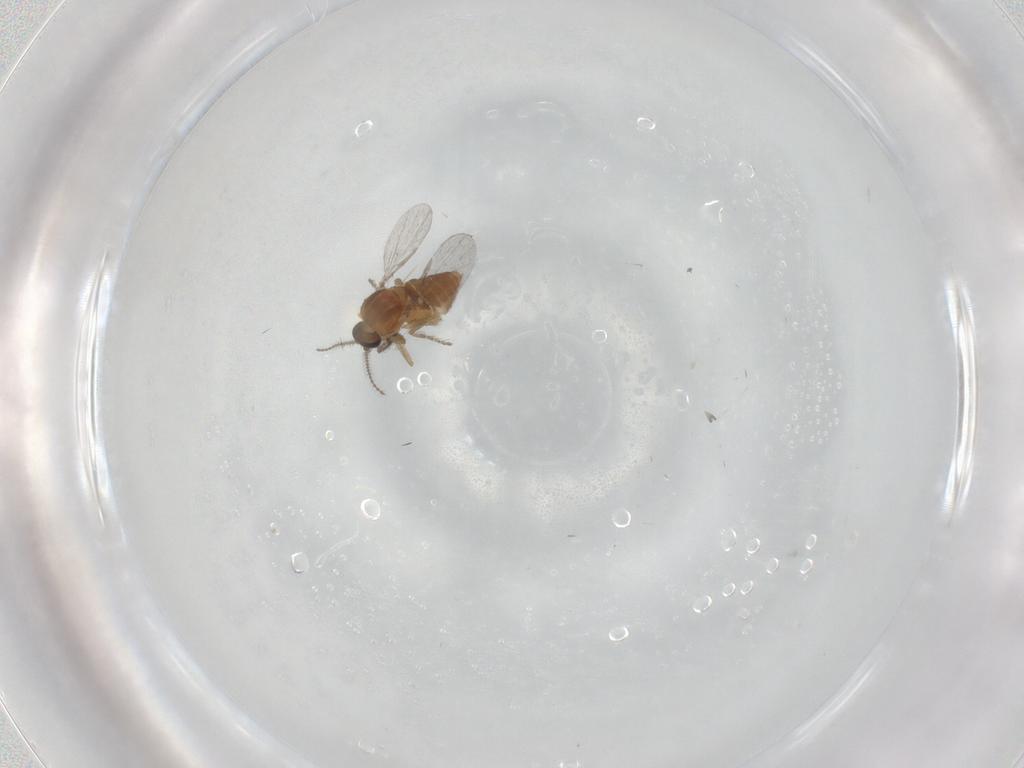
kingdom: Animalia
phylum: Arthropoda
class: Insecta
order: Diptera
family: Ceratopogonidae
